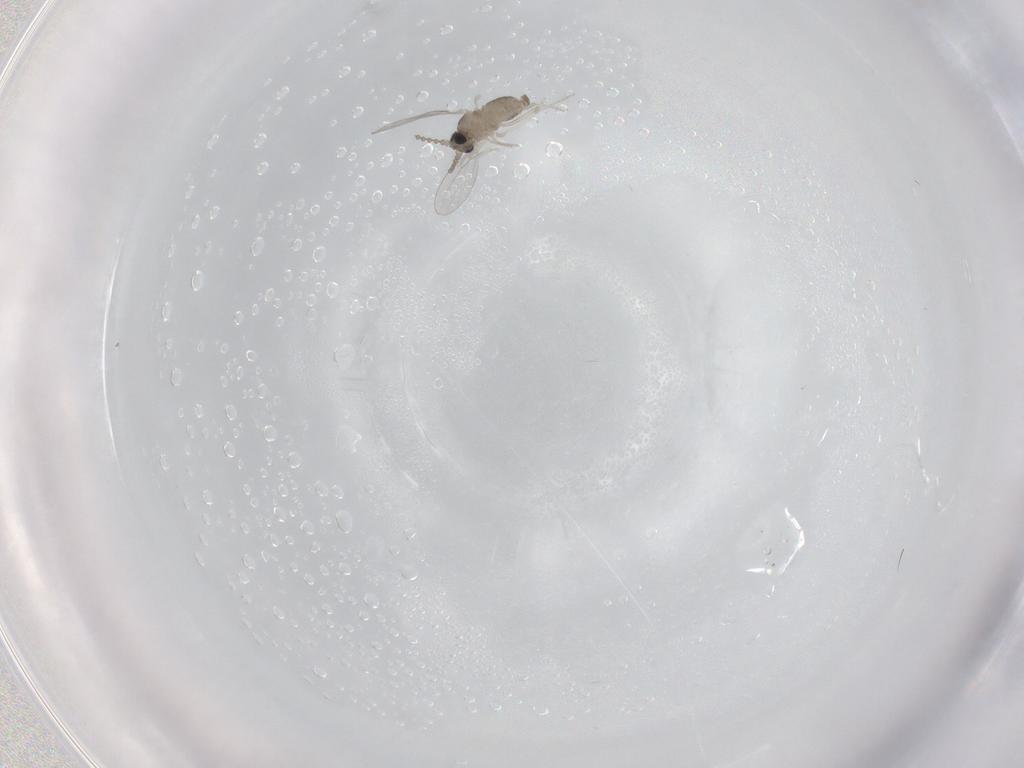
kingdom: Animalia
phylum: Arthropoda
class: Insecta
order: Diptera
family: Cecidomyiidae
